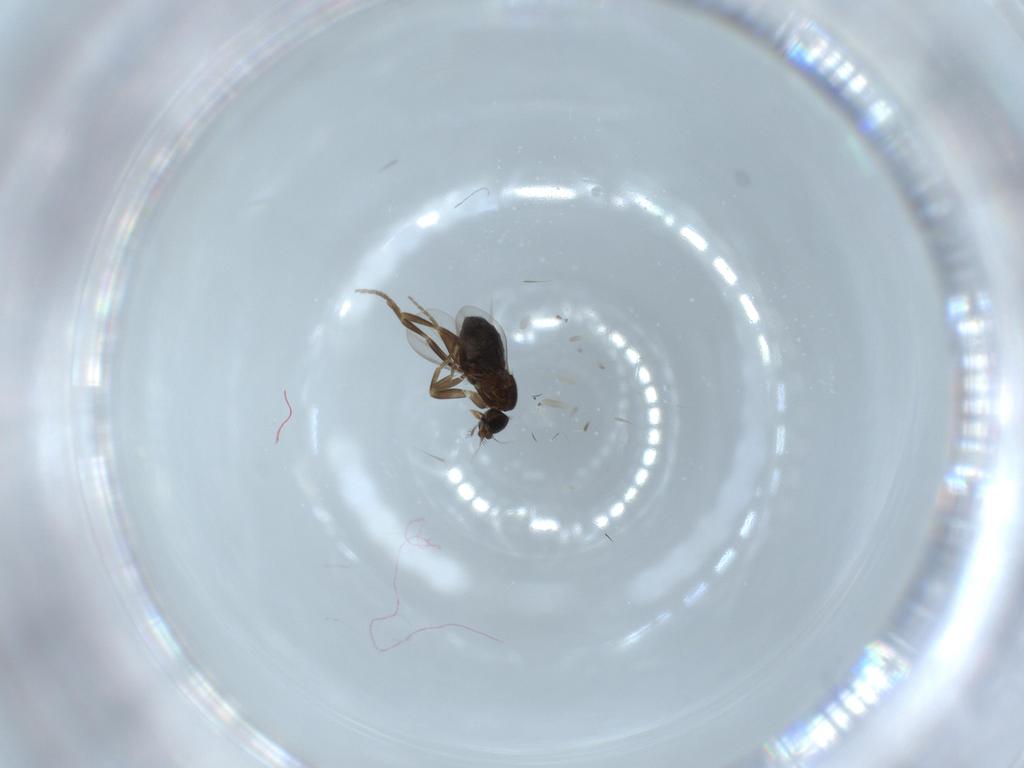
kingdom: Animalia
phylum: Arthropoda
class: Insecta
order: Diptera
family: Phoridae
